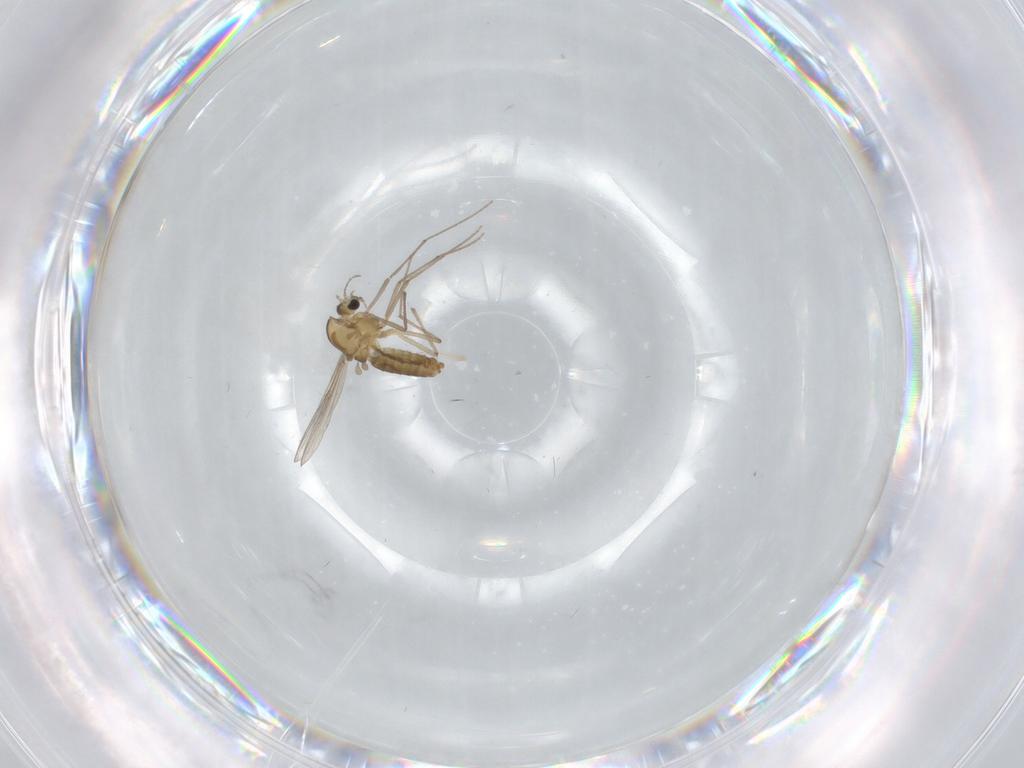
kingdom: Animalia
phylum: Arthropoda
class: Insecta
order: Diptera
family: Chironomidae
